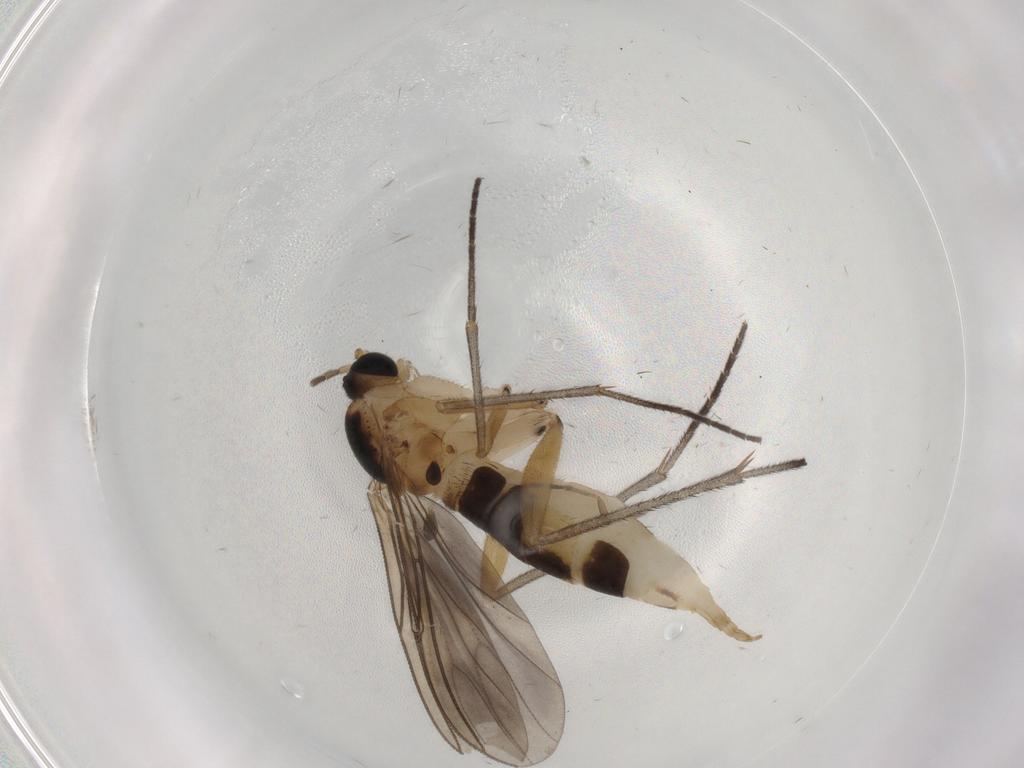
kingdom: Animalia
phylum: Arthropoda
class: Insecta
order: Diptera
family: Sciaridae
